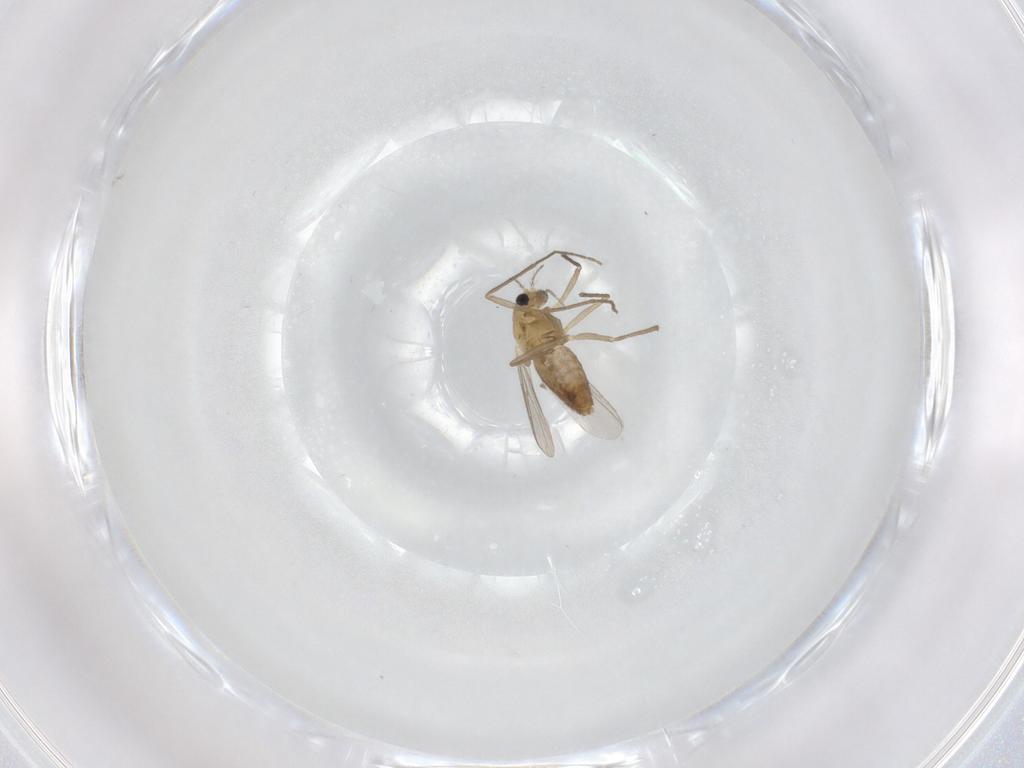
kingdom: Animalia
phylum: Arthropoda
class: Insecta
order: Diptera
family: Chironomidae
